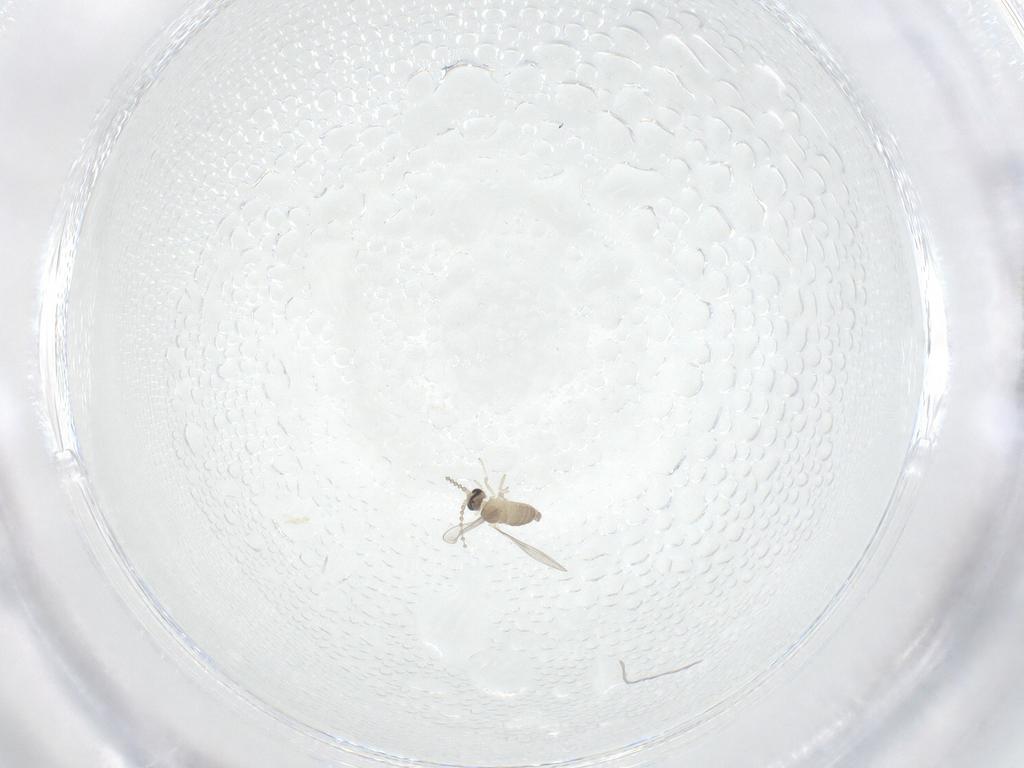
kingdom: Animalia
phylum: Arthropoda
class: Insecta
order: Diptera
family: Cecidomyiidae
